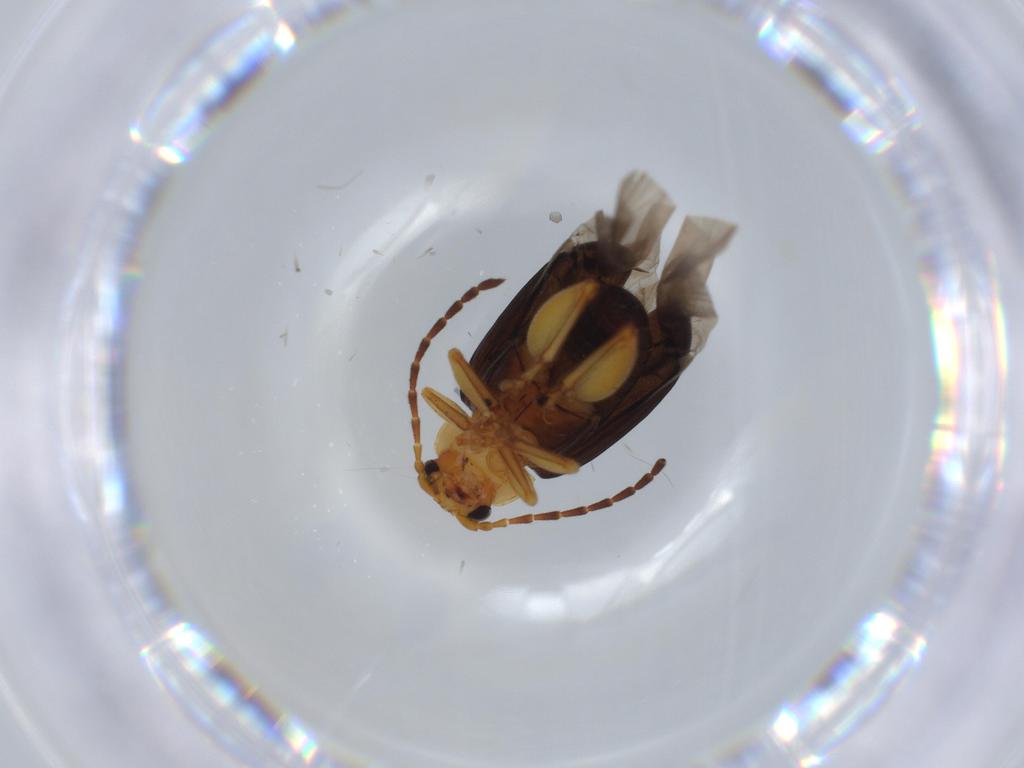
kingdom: Animalia
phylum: Arthropoda
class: Insecta
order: Coleoptera
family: Chrysomelidae
